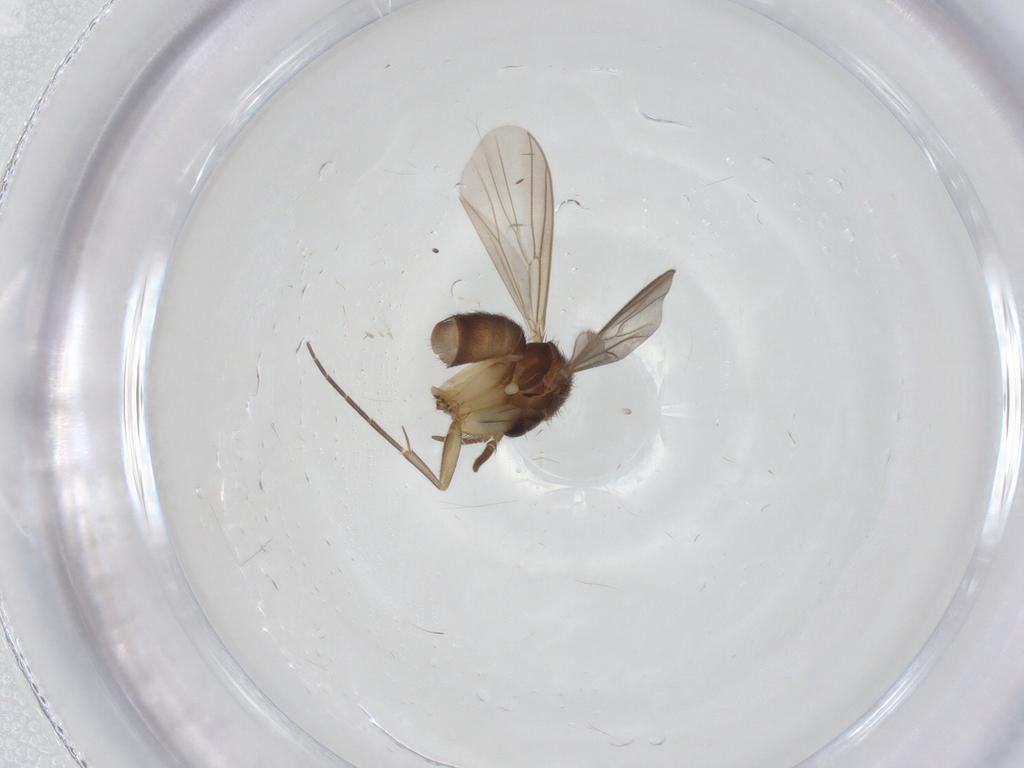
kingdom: Animalia
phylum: Arthropoda
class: Insecta
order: Diptera
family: Mycetophilidae
